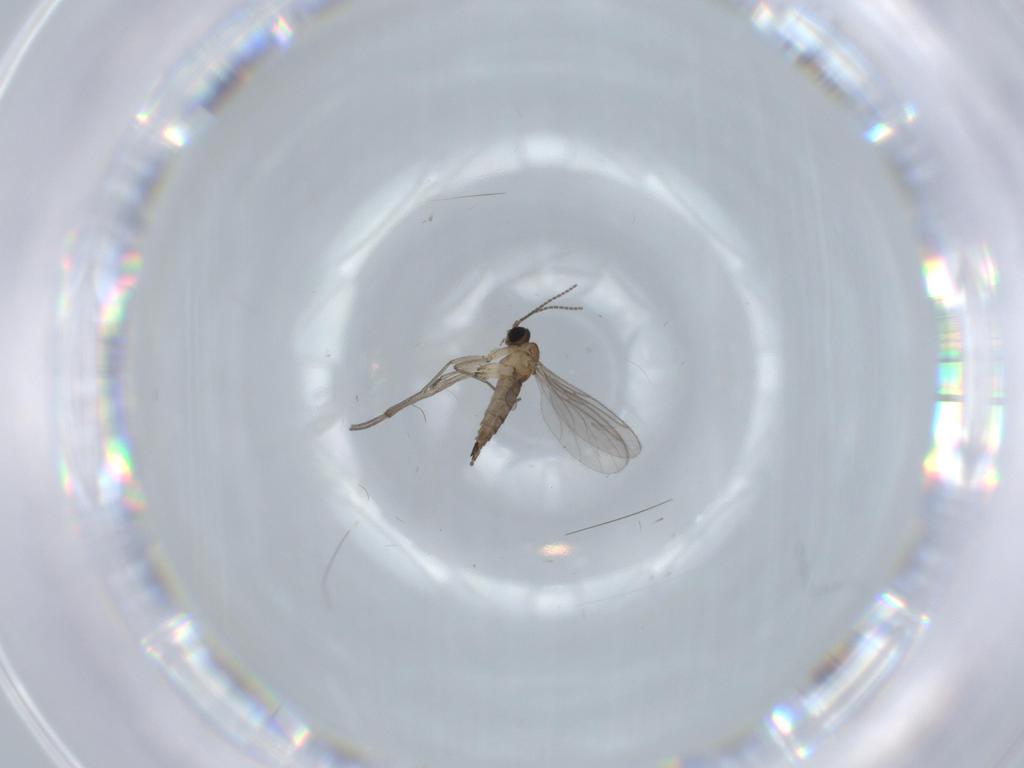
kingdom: Animalia
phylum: Arthropoda
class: Insecta
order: Diptera
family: Sciaridae
